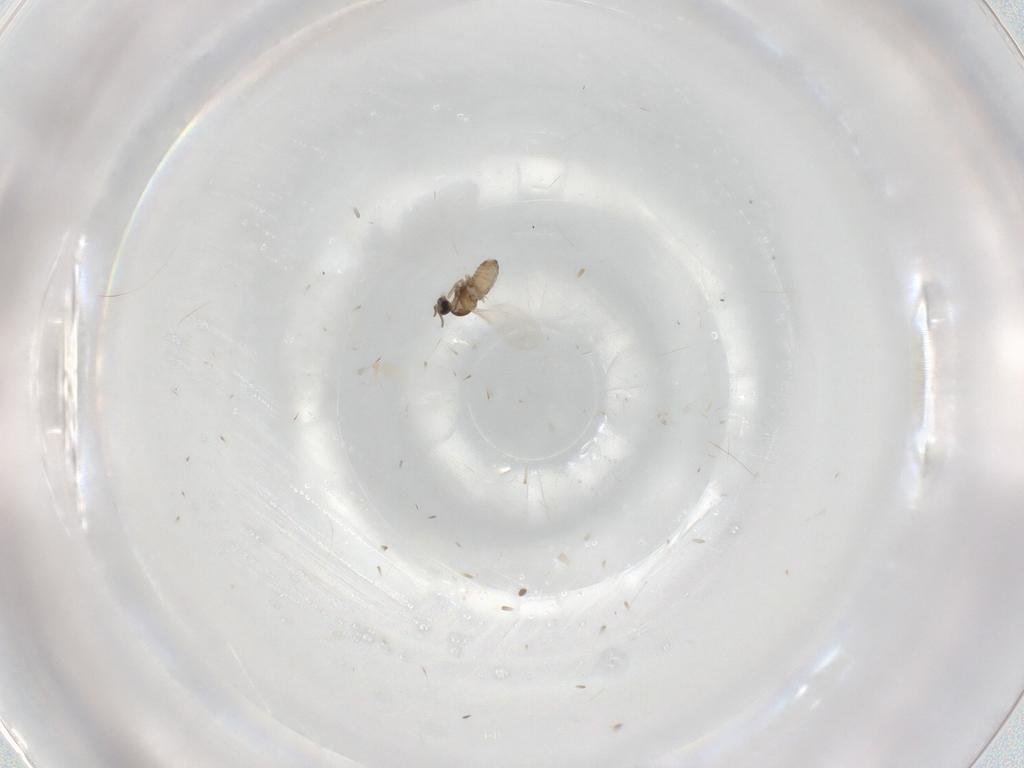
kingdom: Animalia
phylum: Arthropoda
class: Insecta
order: Diptera
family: Cecidomyiidae
